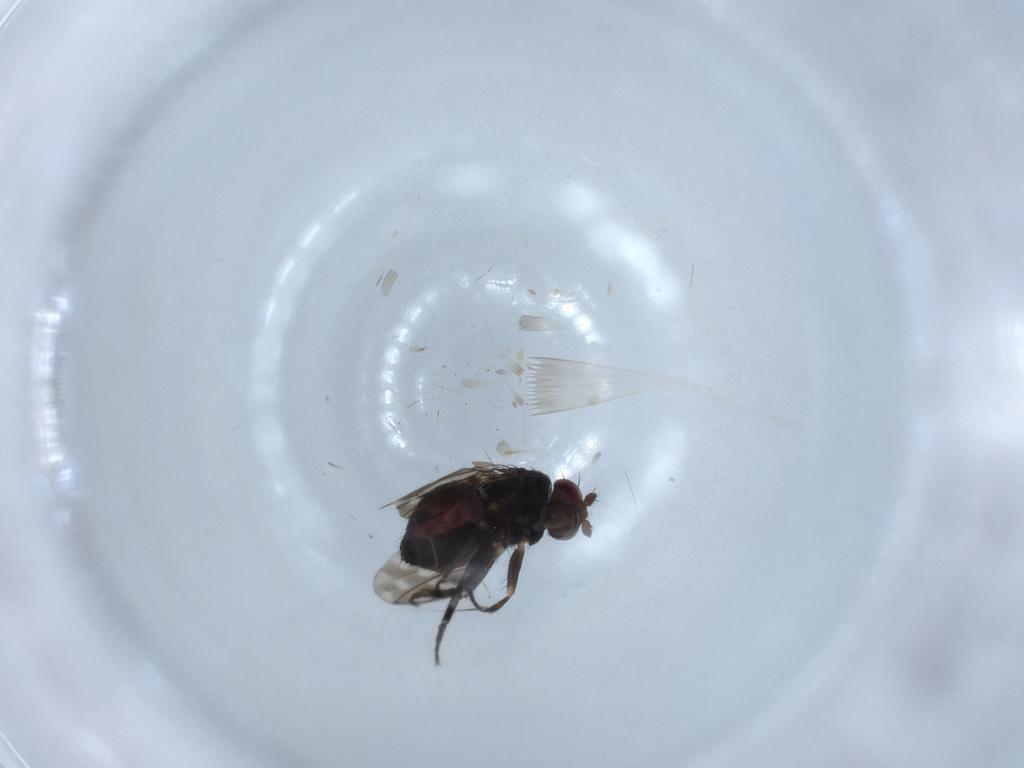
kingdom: Animalia
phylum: Arthropoda
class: Insecta
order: Diptera
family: Sphaeroceridae
